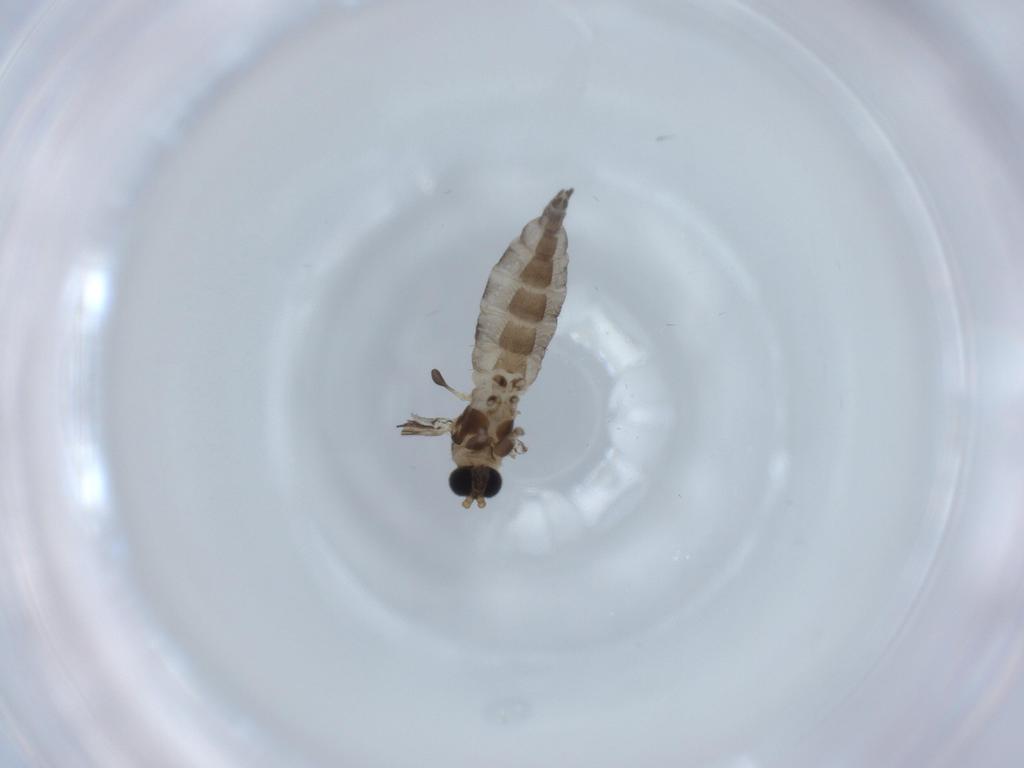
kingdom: Animalia
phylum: Arthropoda
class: Insecta
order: Diptera
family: Sciaridae
